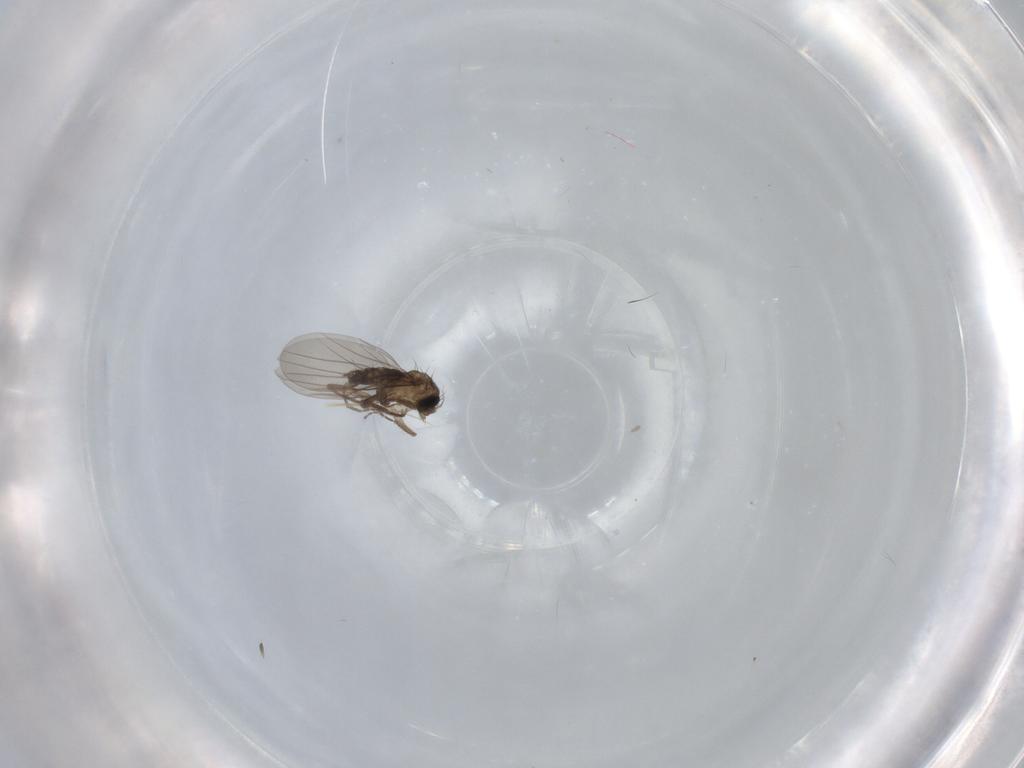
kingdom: Animalia
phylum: Arthropoda
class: Insecta
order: Diptera
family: Phoridae
